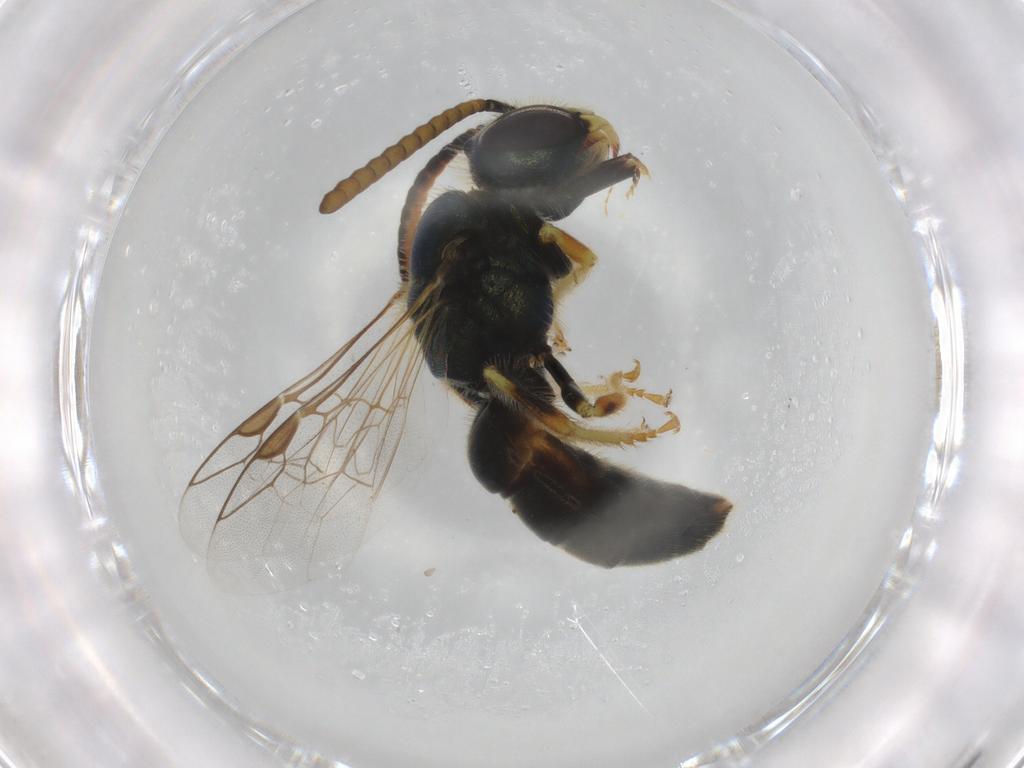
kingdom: Animalia
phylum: Arthropoda
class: Insecta
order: Hymenoptera
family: Halictidae
